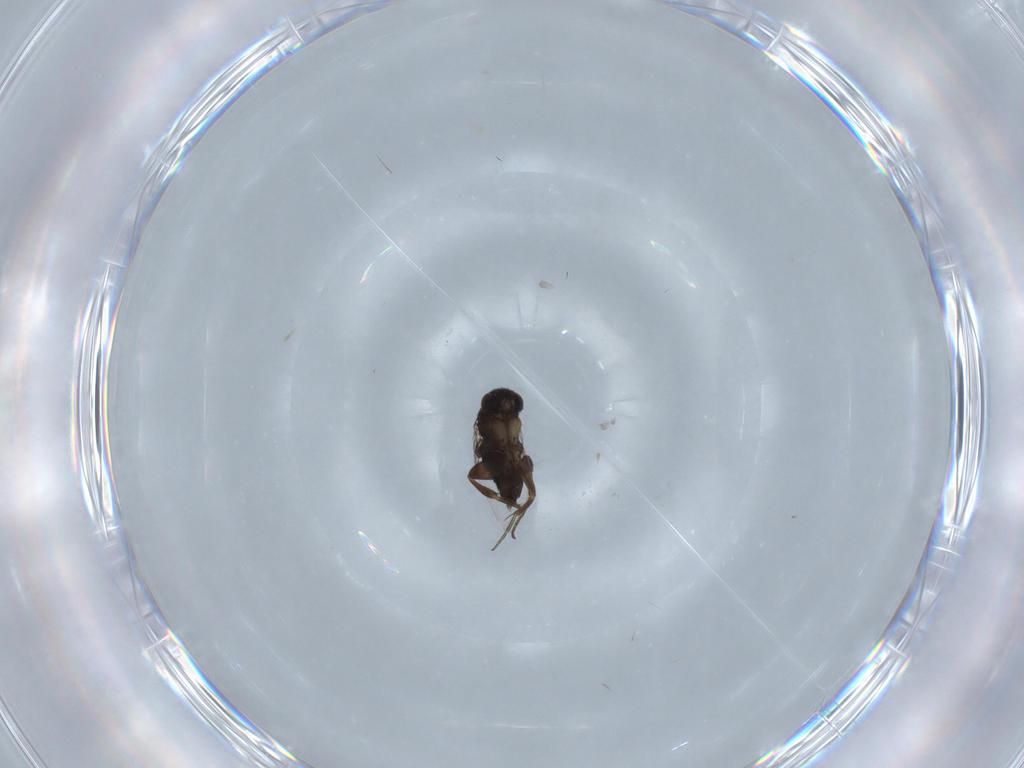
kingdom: Animalia
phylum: Arthropoda
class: Insecta
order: Diptera
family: Phoridae
